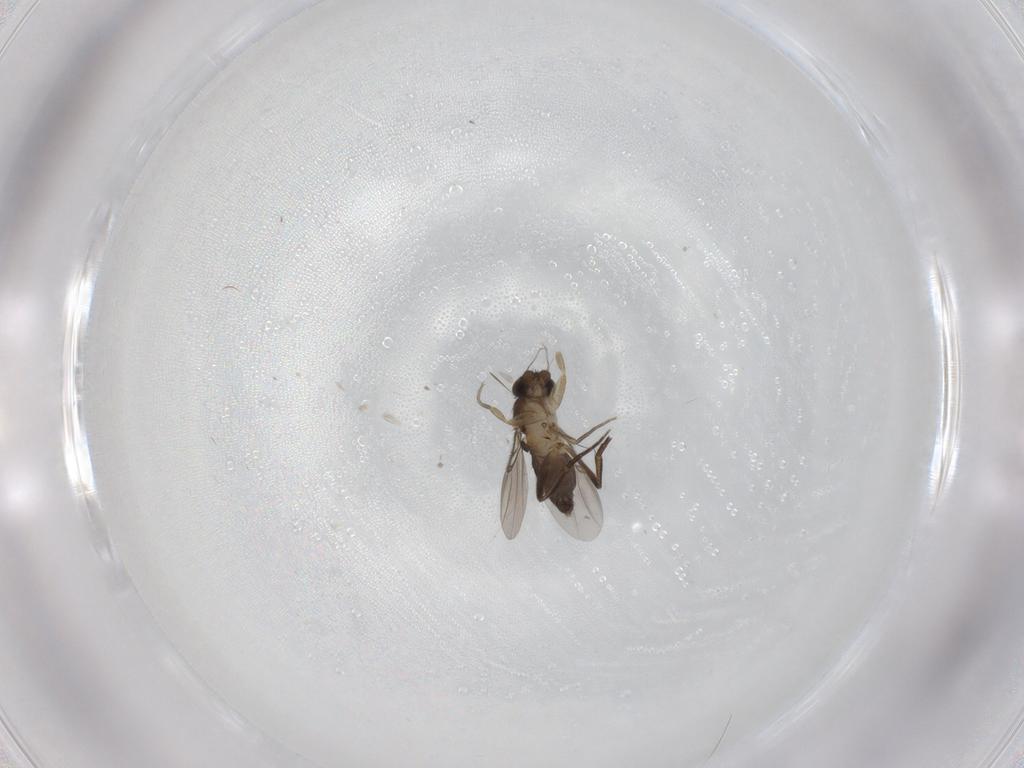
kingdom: Animalia
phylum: Arthropoda
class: Insecta
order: Diptera
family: Phoridae
